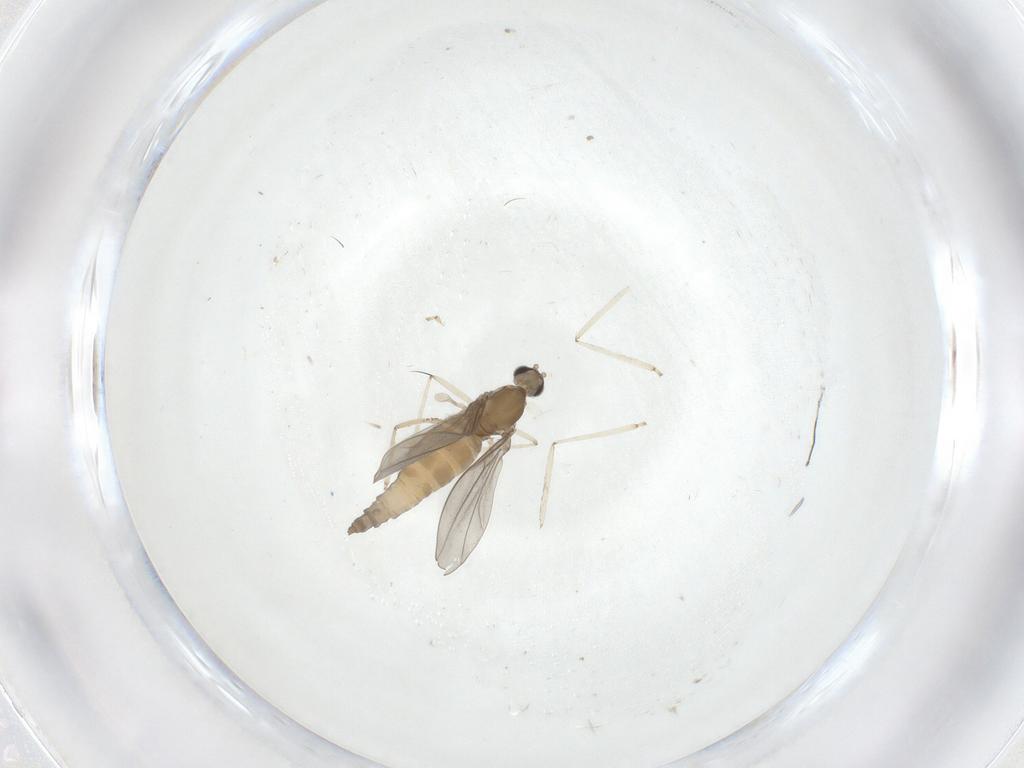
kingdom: Animalia
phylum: Arthropoda
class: Insecta
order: Diptera
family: Cecidomyiidae
